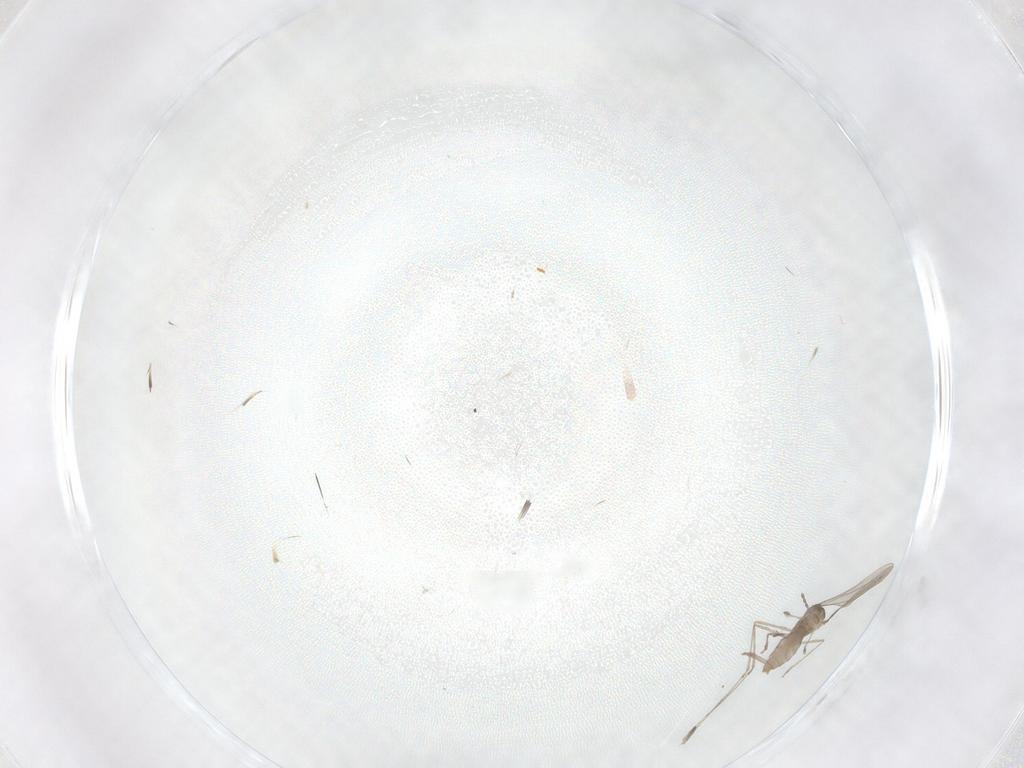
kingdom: Animalia
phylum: Arthropoda
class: Insecta
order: Diptera
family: Cecidomyiidae
